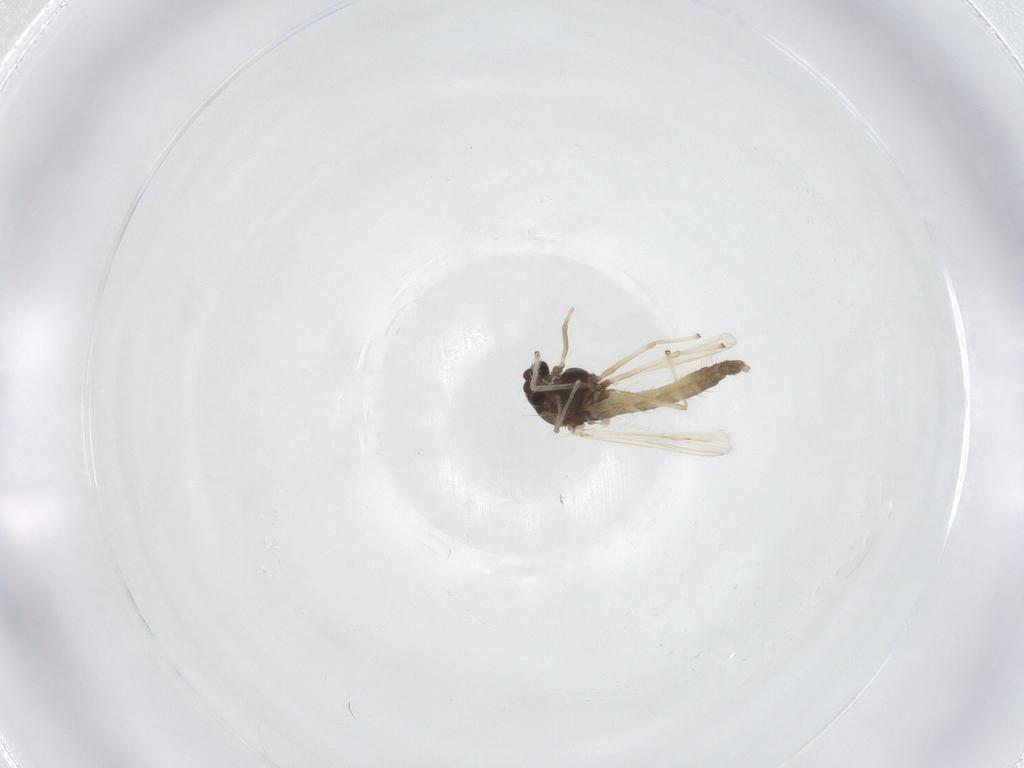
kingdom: Animalia
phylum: Arthropoda
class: Insecta
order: Diptera
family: Chironomidae
